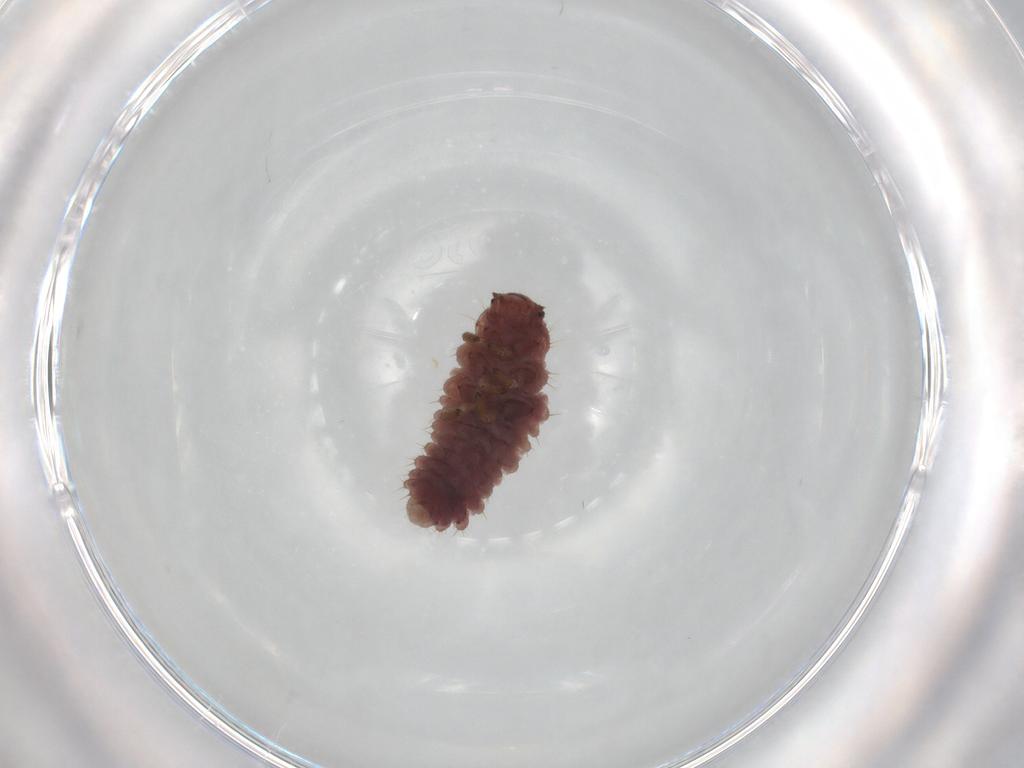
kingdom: Animalia
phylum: Arthropoda
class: Insecta
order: Coleoptera
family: Coccinellidae
